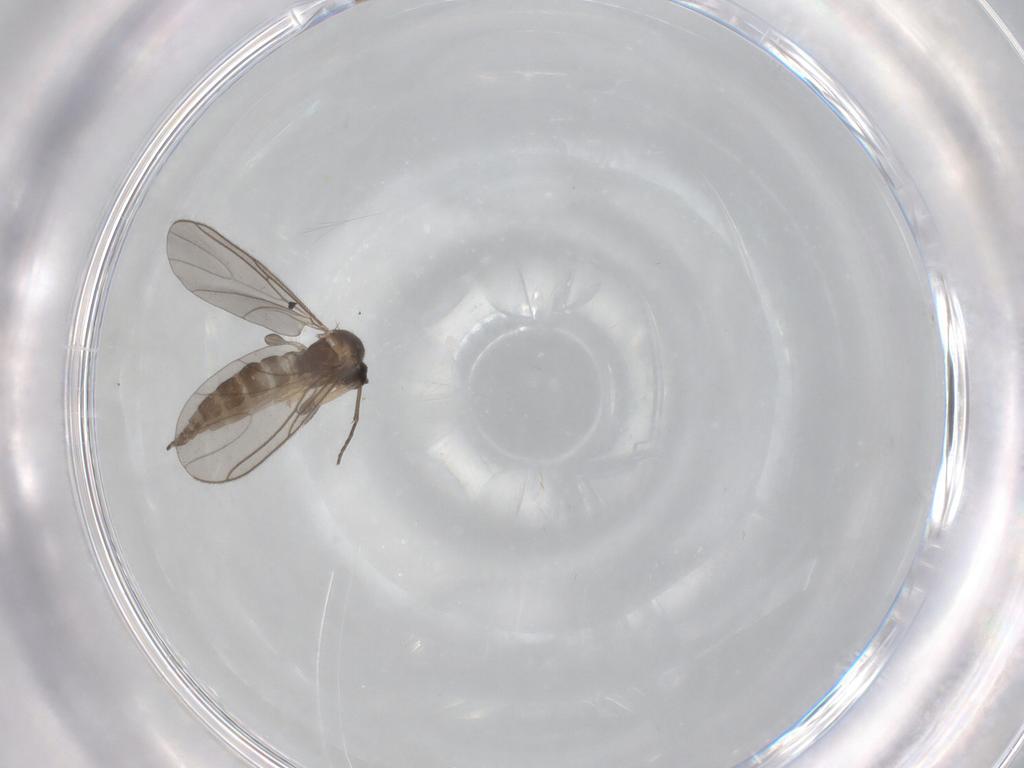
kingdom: Animalia
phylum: Arthropoda
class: Insecta
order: Diptera
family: Sciaridae
